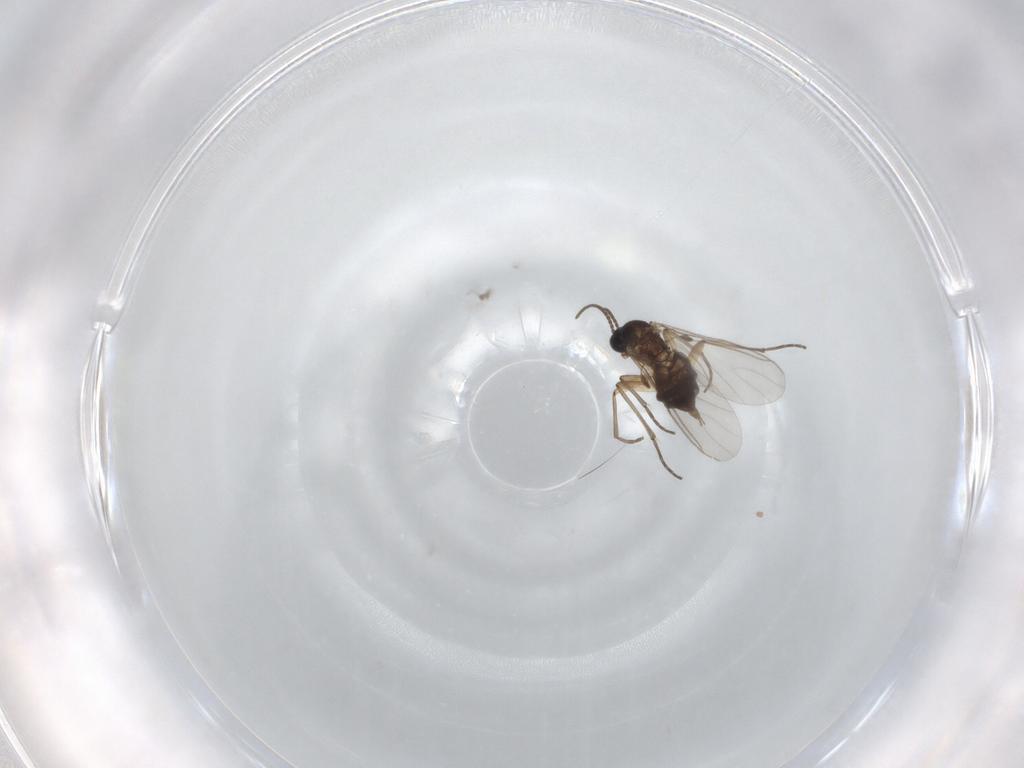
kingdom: Animalia
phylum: Arthropoda
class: Insecta
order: Diptera
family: Sciaridae
